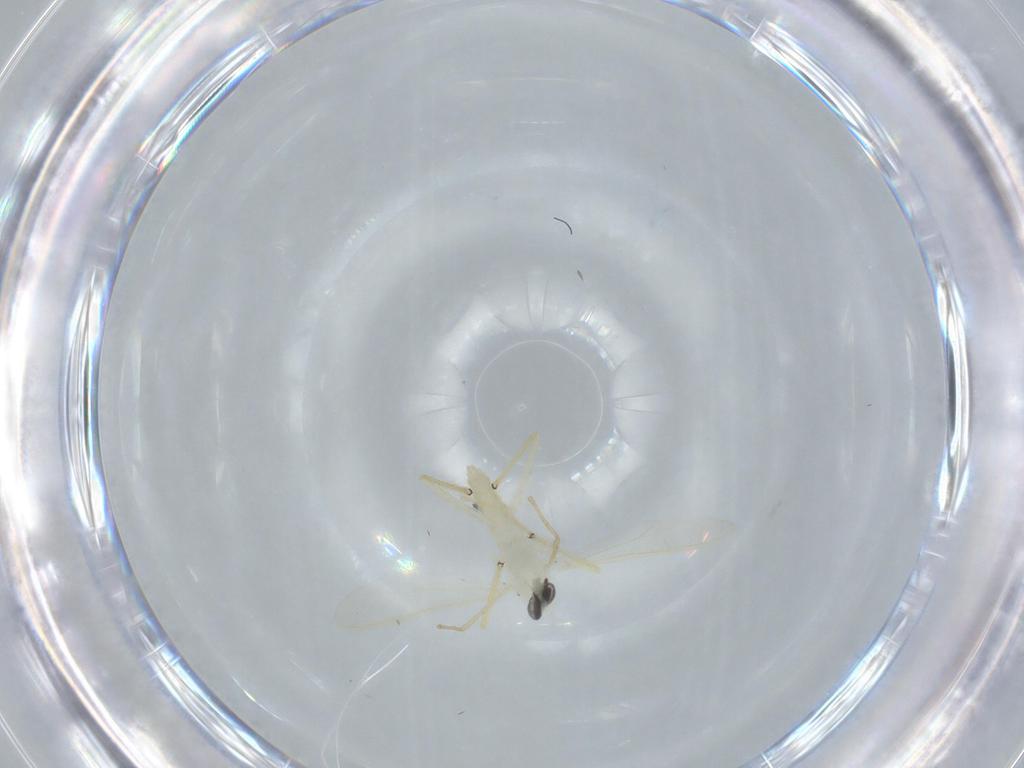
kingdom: Animalia
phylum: Arthropoda
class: Insecta
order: Diptera
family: Chironomidae
